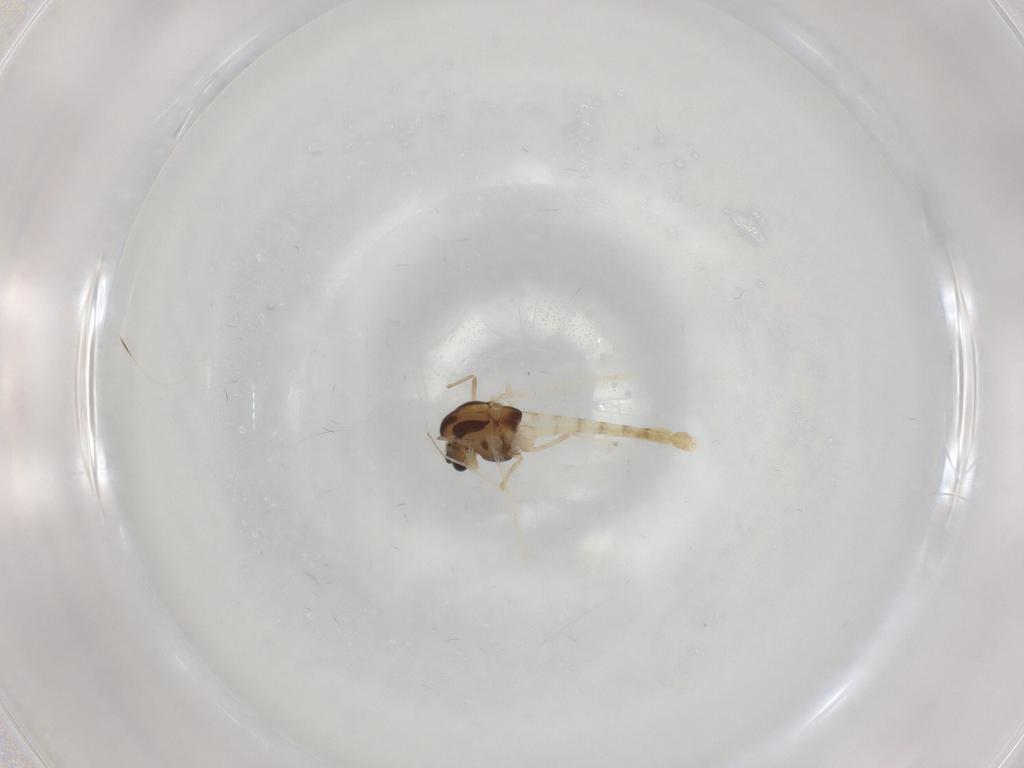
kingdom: Animalia
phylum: Arthropoda
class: Insecta
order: Diptera
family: Chironomidae
